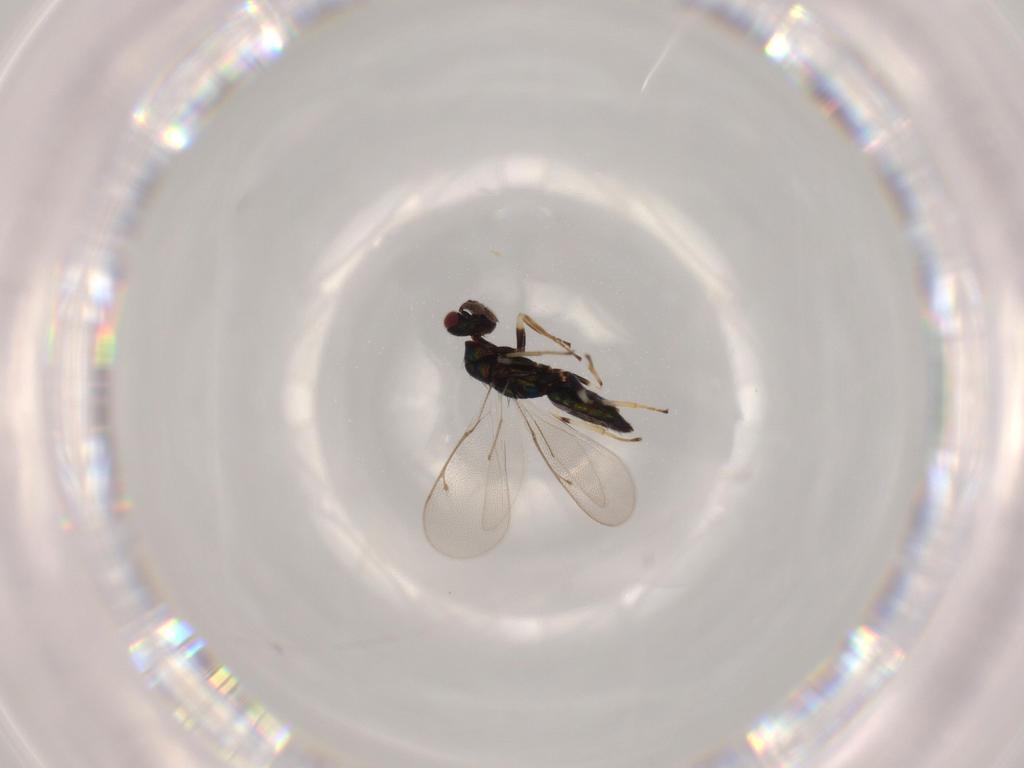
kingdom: Animalia
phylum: Arthropoda
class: Insecta
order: Hymenoptera
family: Eulophidae
